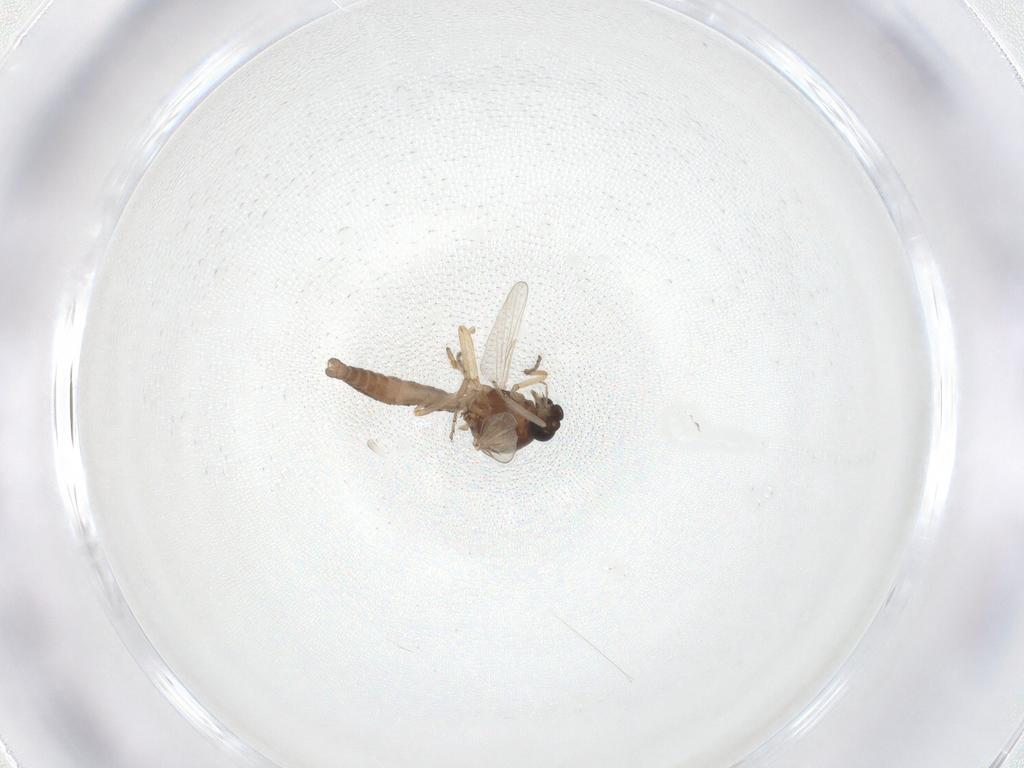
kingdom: Animalia
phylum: Arthropoda
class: Insecta
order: Diptera
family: Ceratopogonidae
